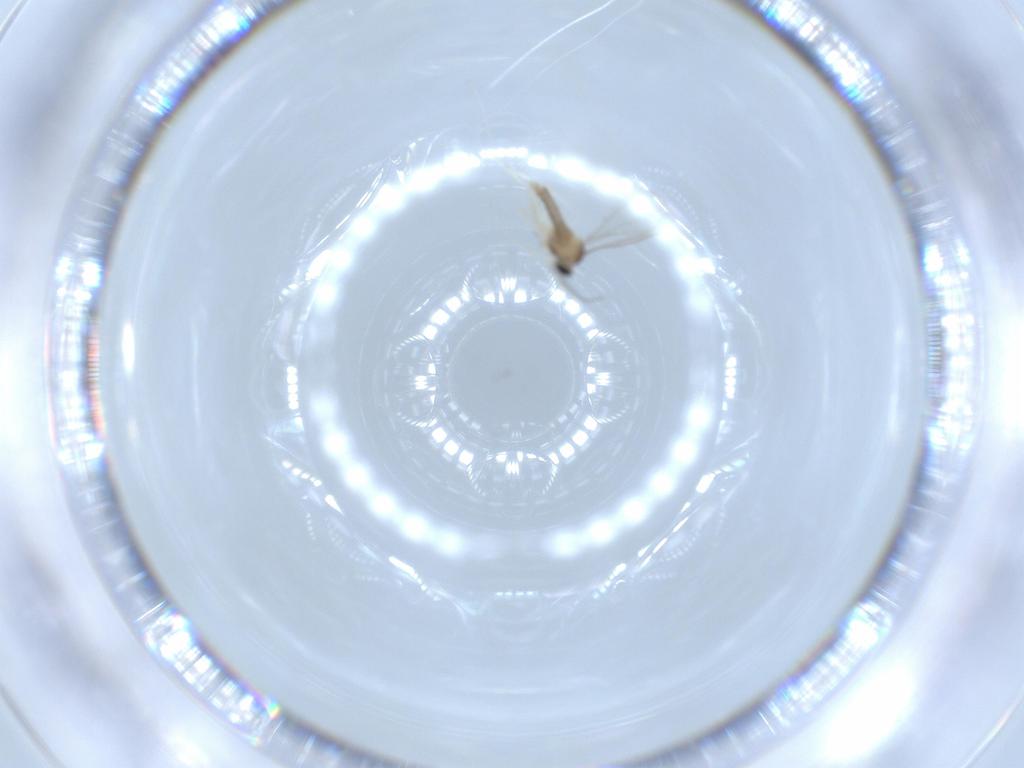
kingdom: Animalia
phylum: Arthropoda
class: Insecta
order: Diptera
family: Phoridae
